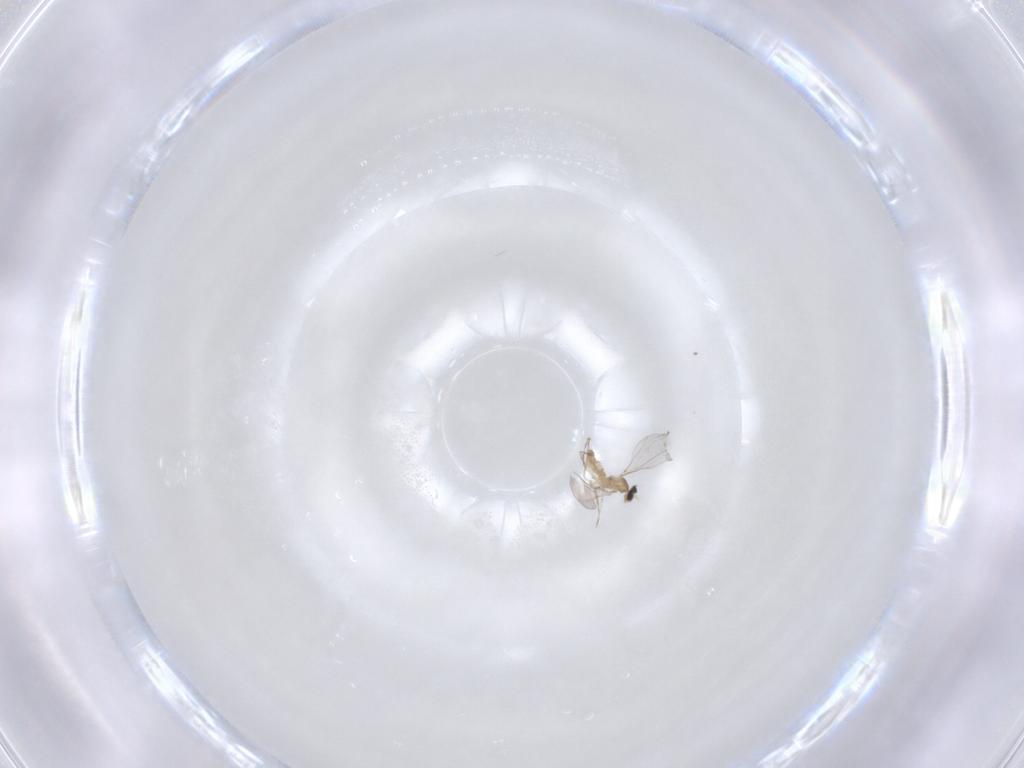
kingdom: Animalia
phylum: Arthropoda
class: Insecta
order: Diptera
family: Cecidomyiidae
